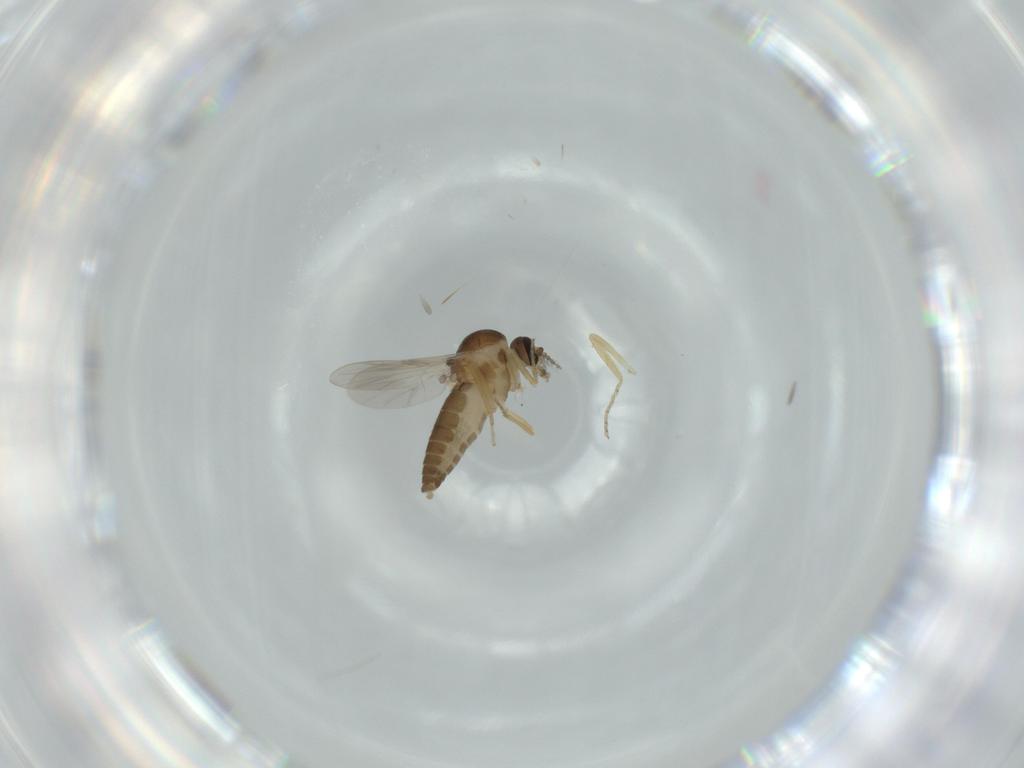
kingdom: Animalia
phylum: Arthropoda
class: Insecta
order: Diptera
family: Ceratopogonidae
